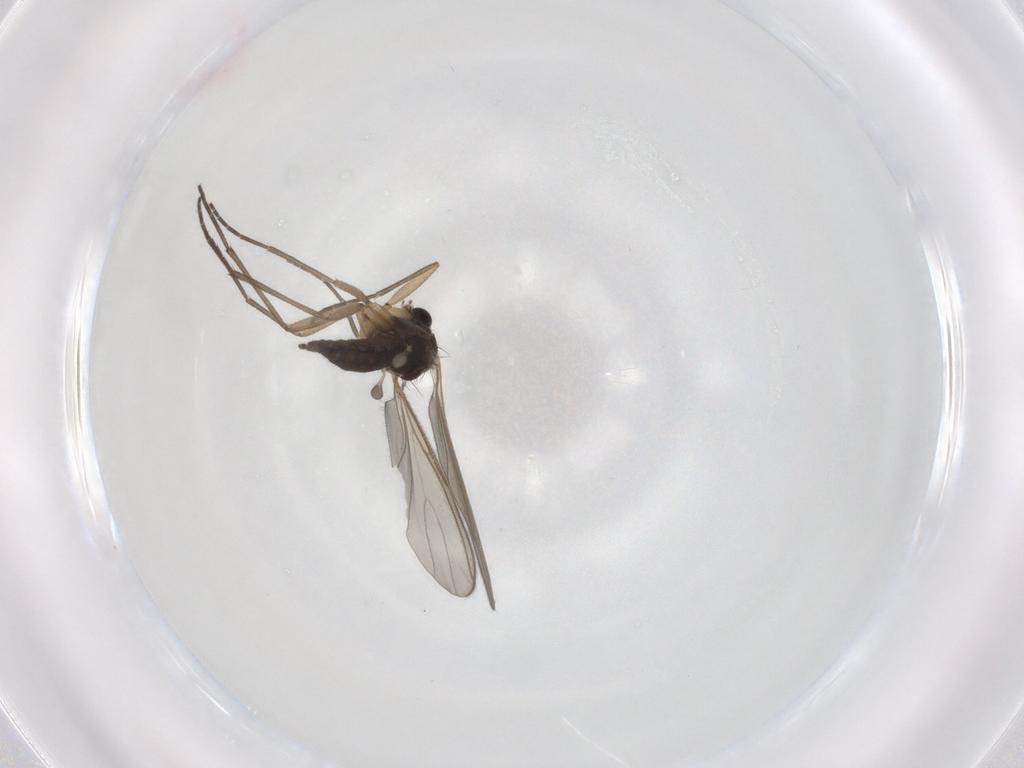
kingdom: Animalia
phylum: Arthropoda
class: Insecta
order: Diptera
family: Sciaridae
